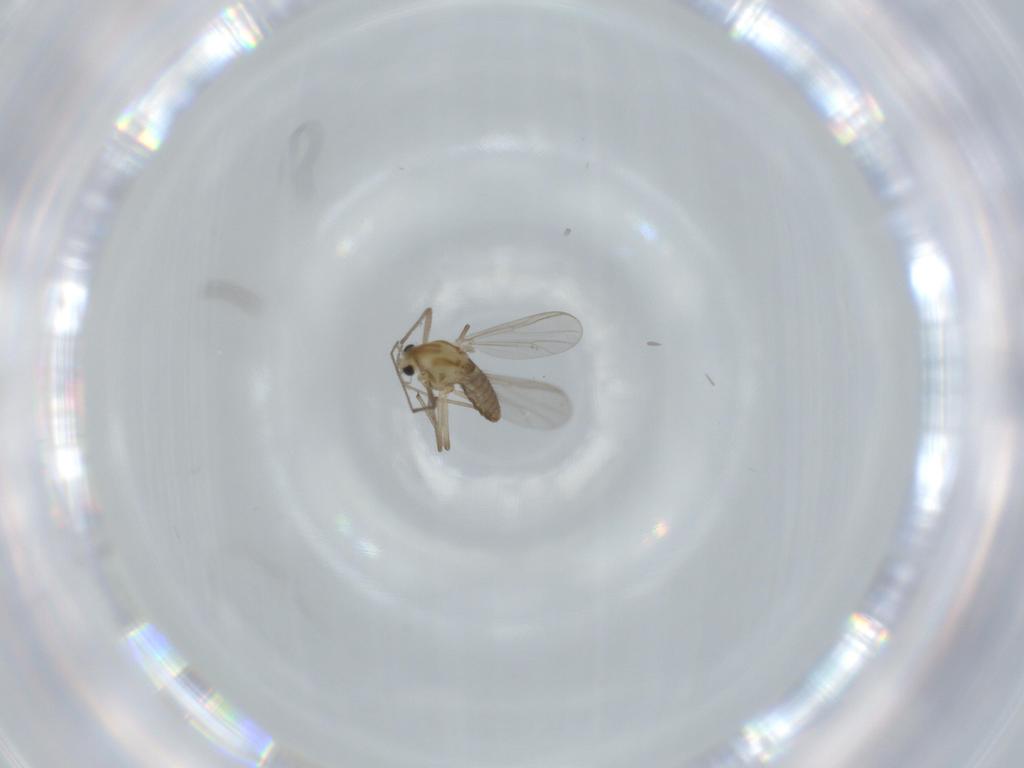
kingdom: Animalia
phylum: Arthropoda
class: Insecta
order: Diptera
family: Chironomidae
